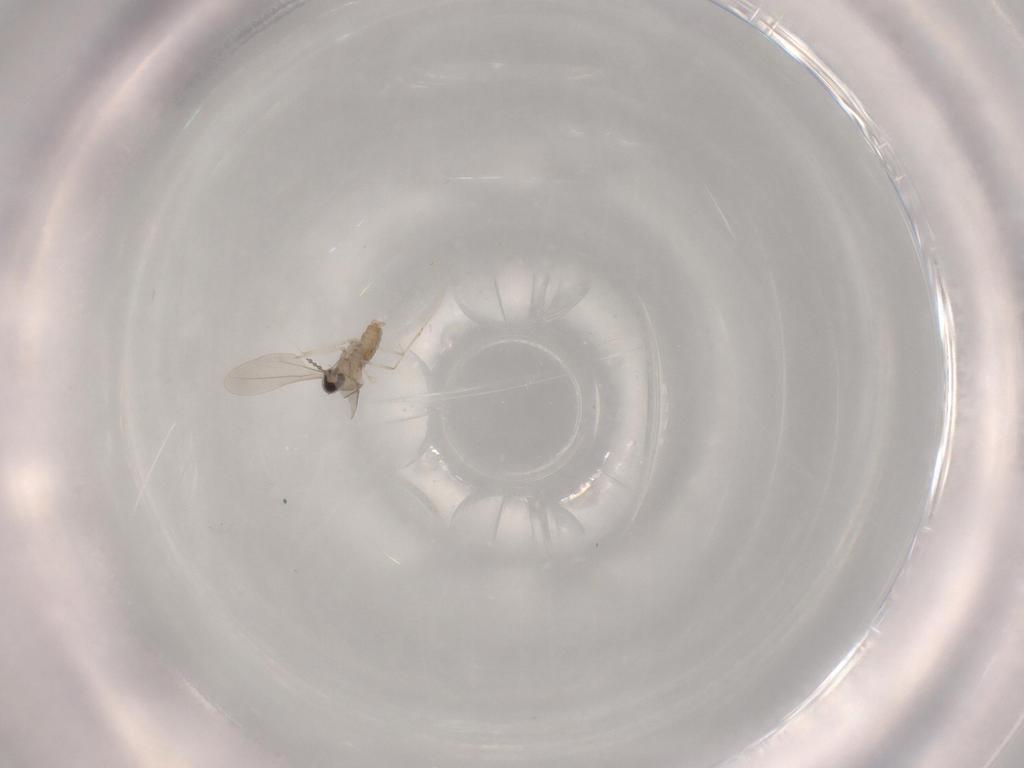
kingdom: Animalia
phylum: Arthropoda
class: Insecta
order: Diptera
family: Cecidomyiidae
